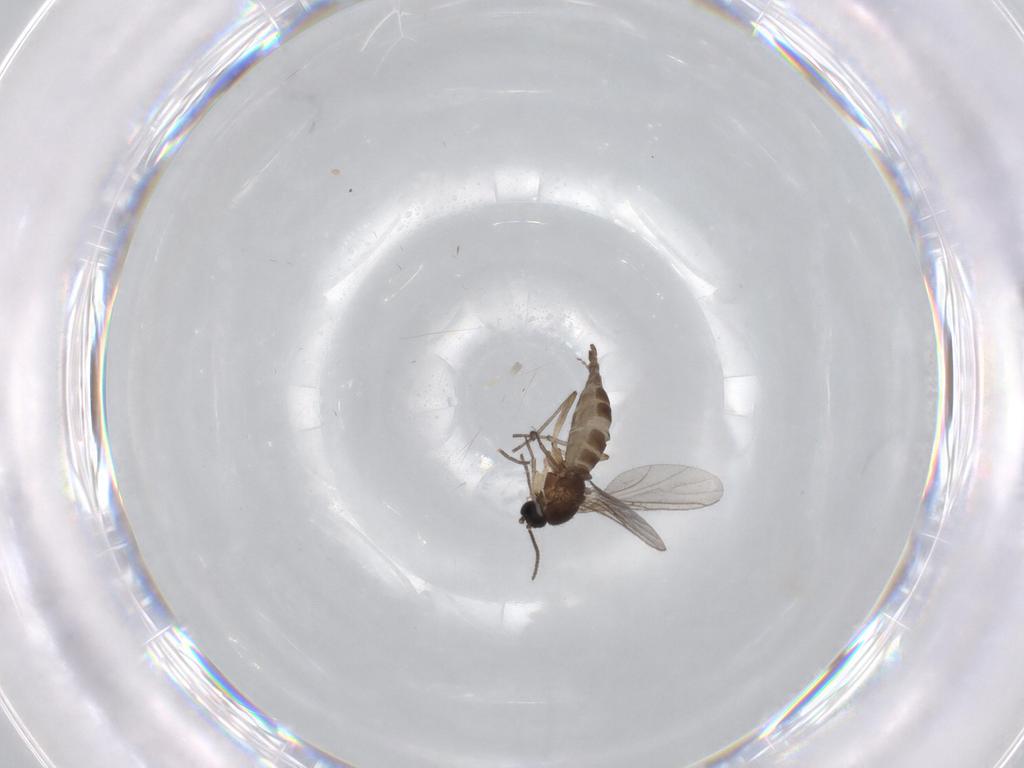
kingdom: Animalia
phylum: Arthropoda
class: Insecta
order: Diptera
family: Sciaridae
